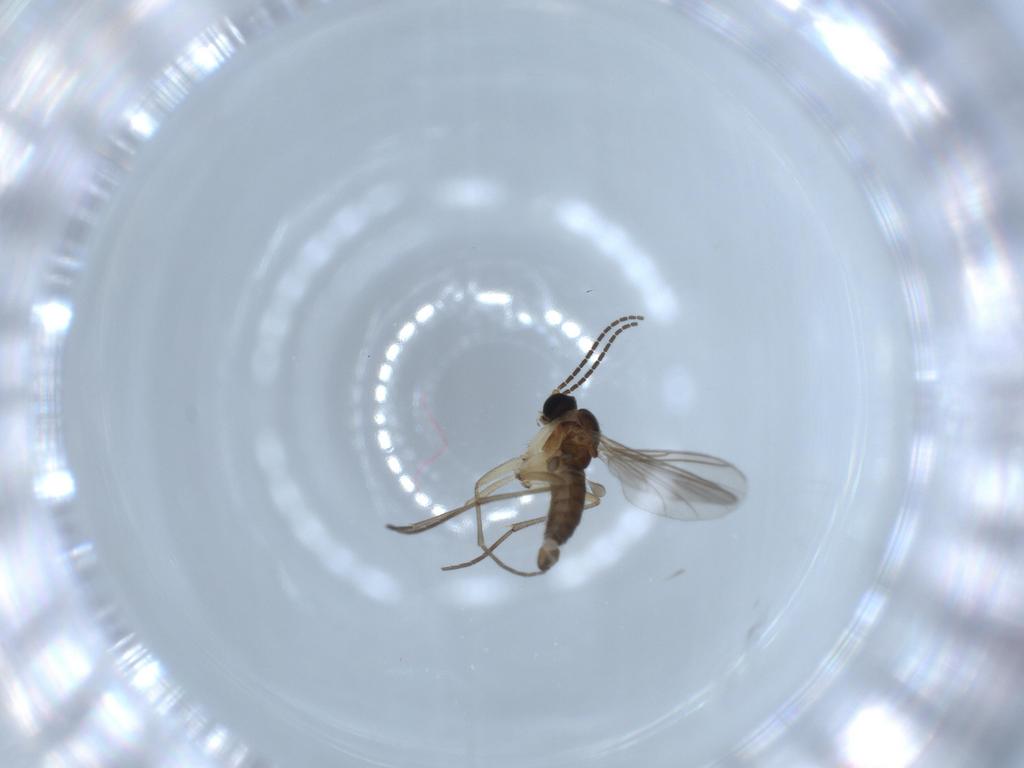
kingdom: Animalia
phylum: Arthropoda
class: Insecta
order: Diptera
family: Sciaridae
